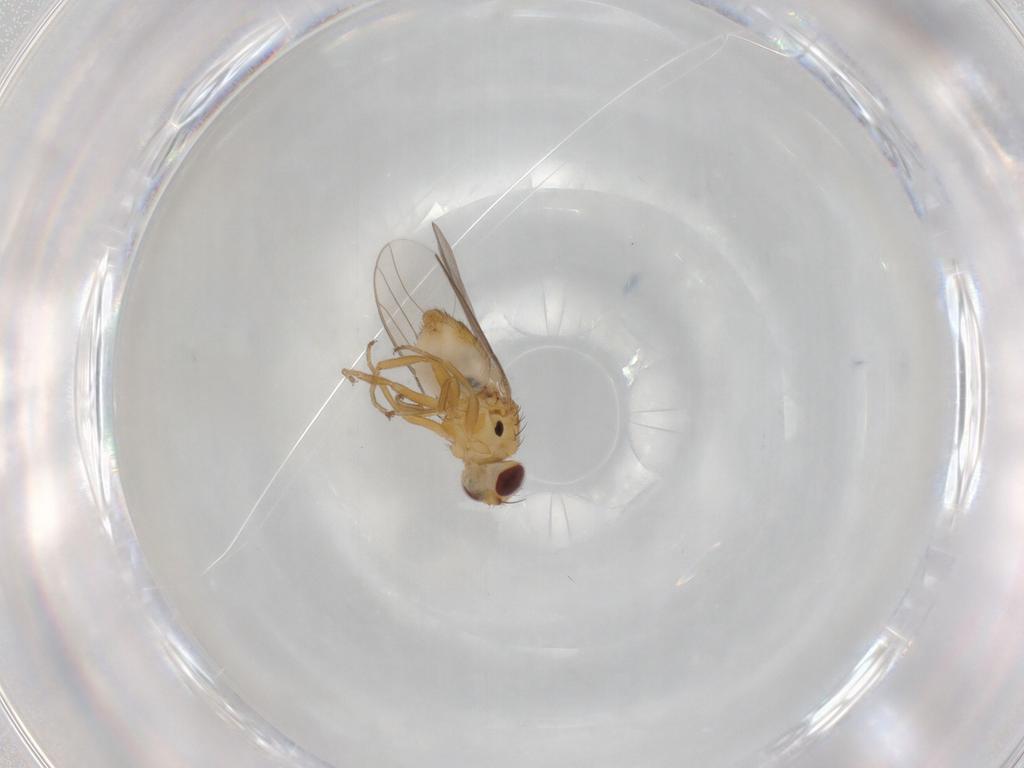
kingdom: Animalia
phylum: Arthropoda
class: Insecta
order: Diptera
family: Chloropidae
